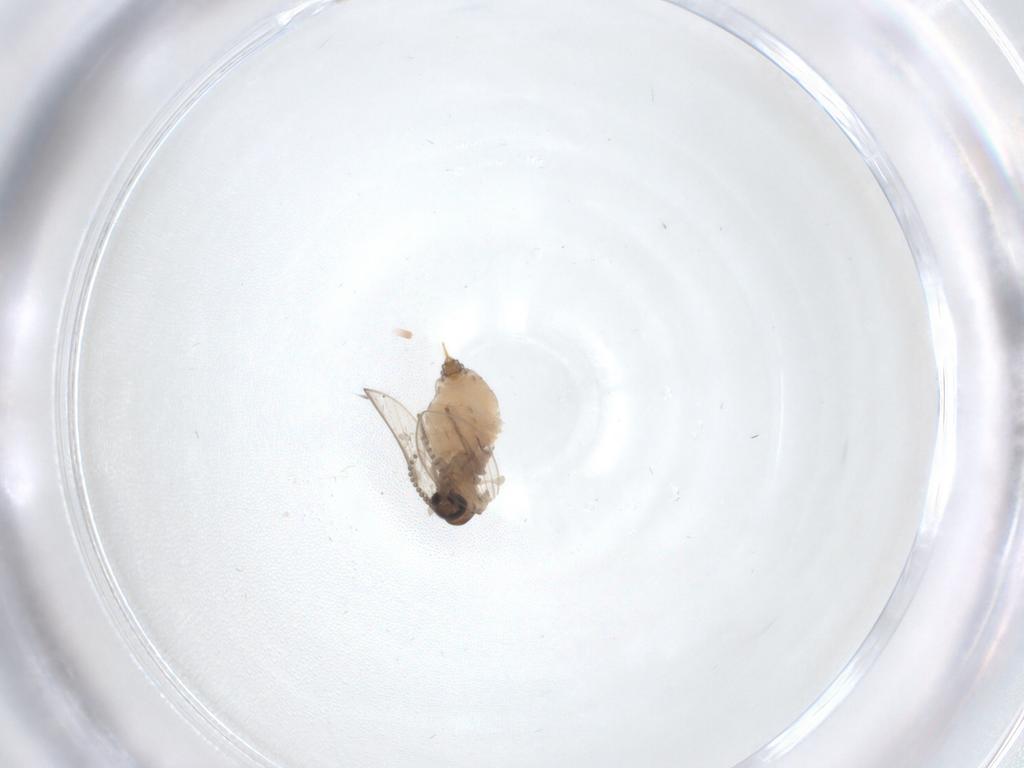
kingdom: Animalia
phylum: Arthropoda
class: Insecta
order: Diptera
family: Psychodidae
